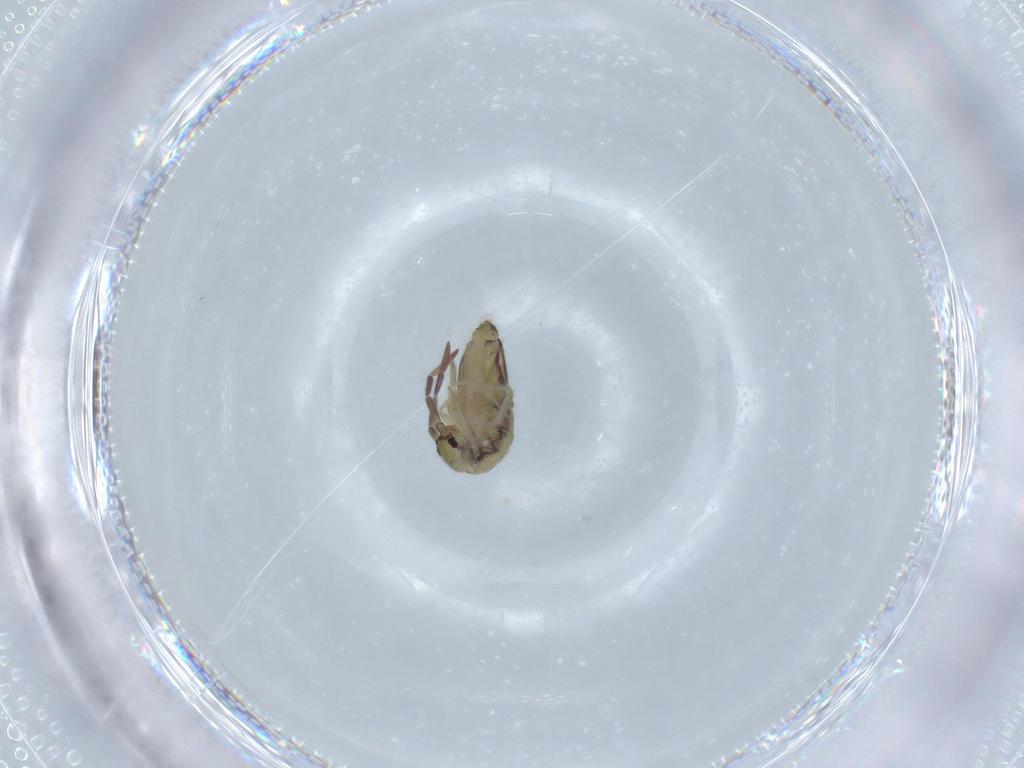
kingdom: Animalia
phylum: Arthropoda
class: Collembola
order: Entomobryomorpha
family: Entomobryidae
